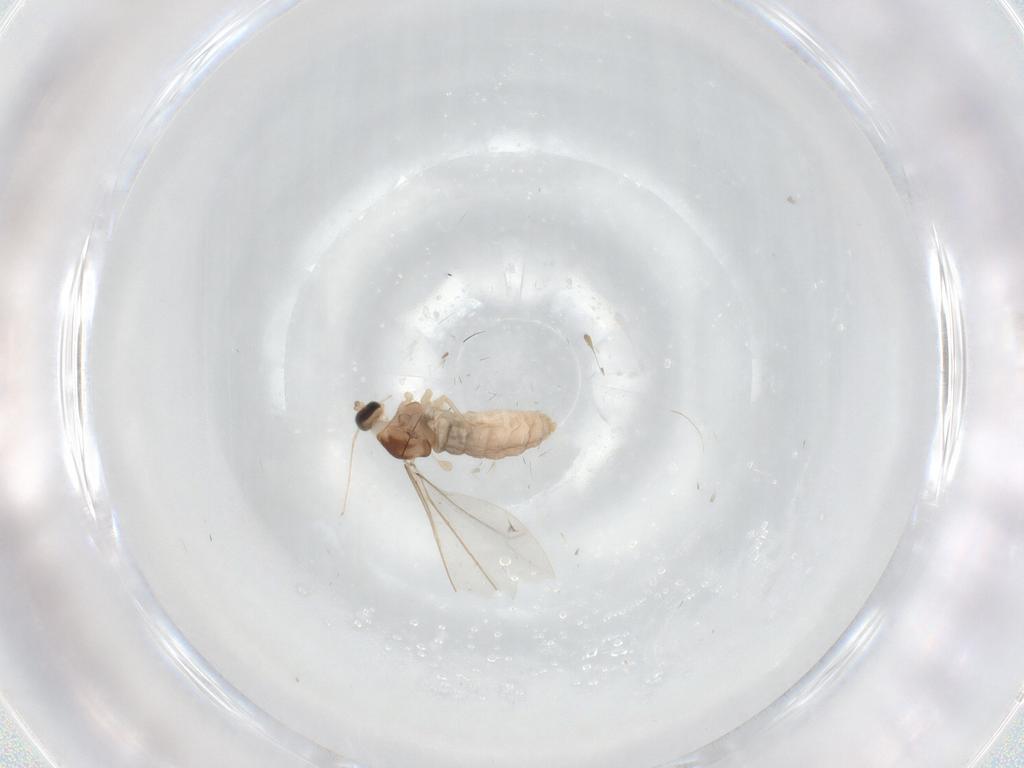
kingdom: Animalia
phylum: Arthropoda
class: Insecta
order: Diptera
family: Cecidomyiidae
